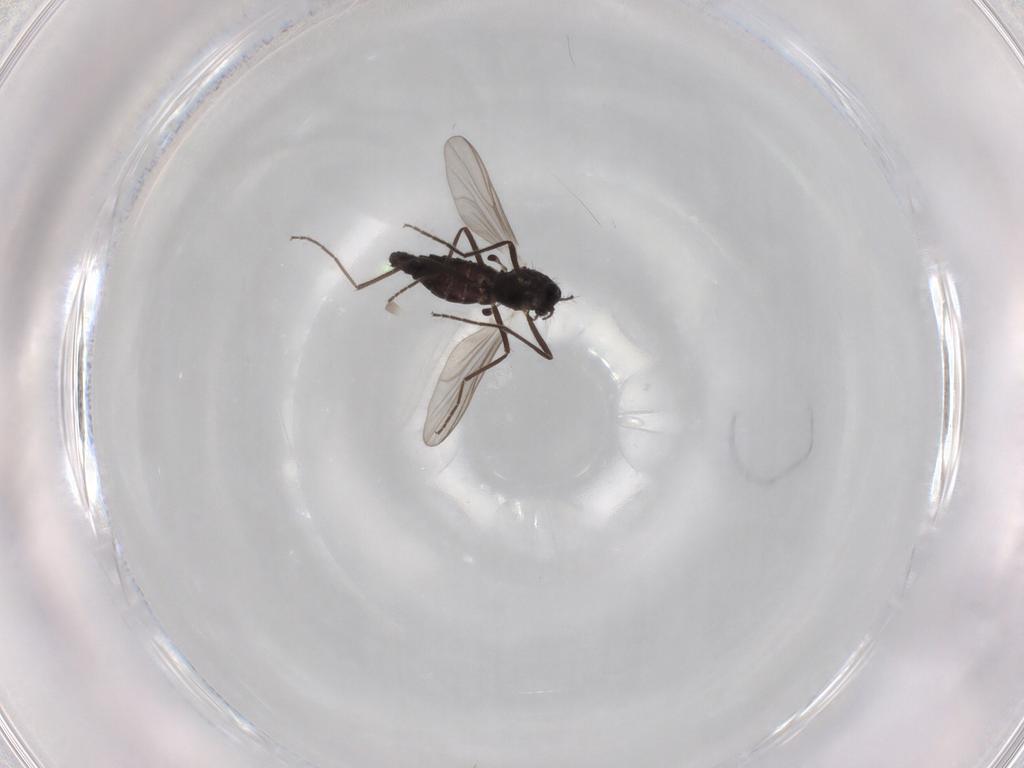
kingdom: Animalia
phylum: Arthropoda
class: Insecta
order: Diptera
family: Chironomidae
